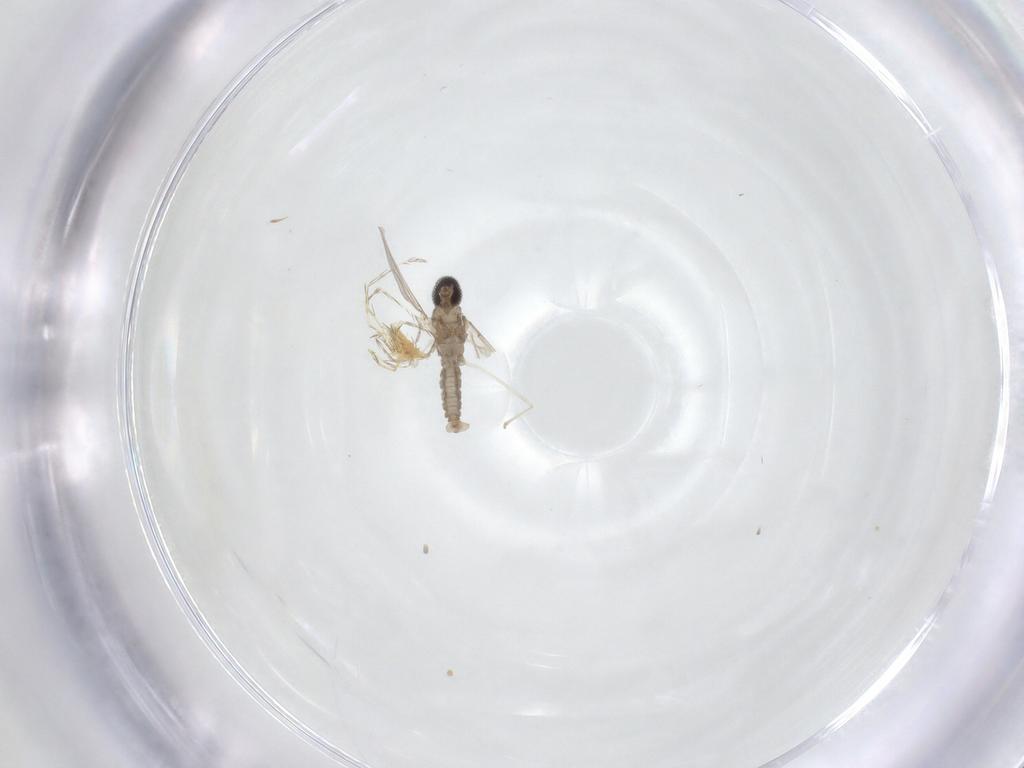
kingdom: Animalia
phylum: Arthropoda
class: Insecta
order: Diptera
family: Cecidomyiidae
